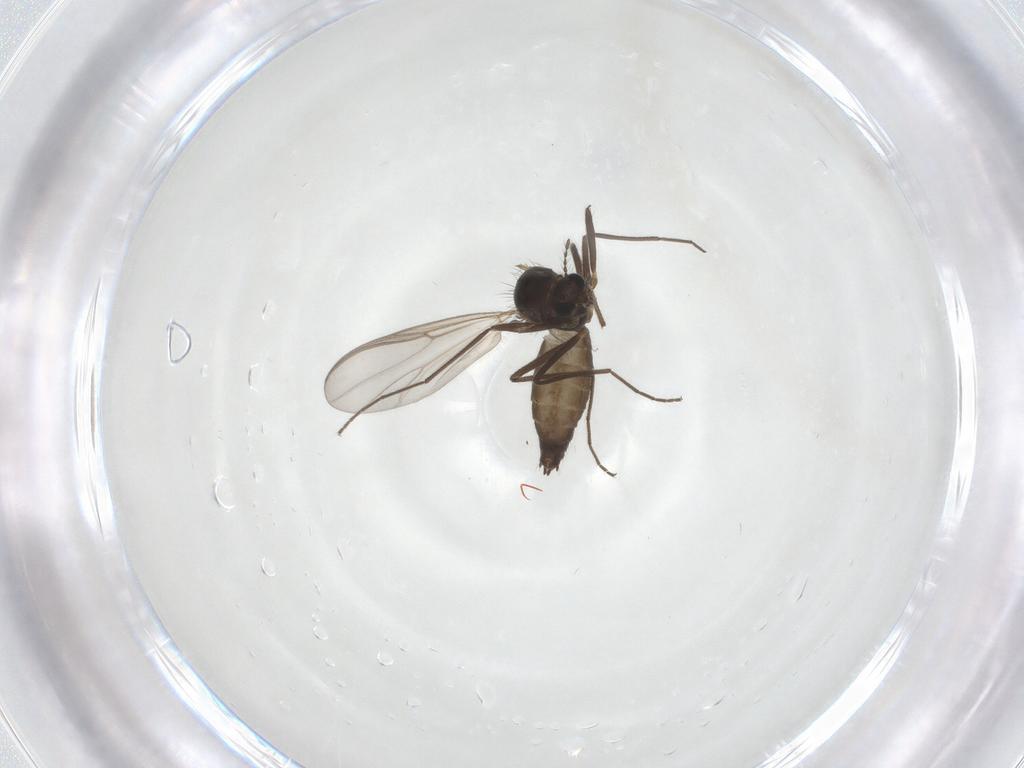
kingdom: Animalia
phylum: Arthropoda
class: Insecta
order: Diptera
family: Chironomidae
